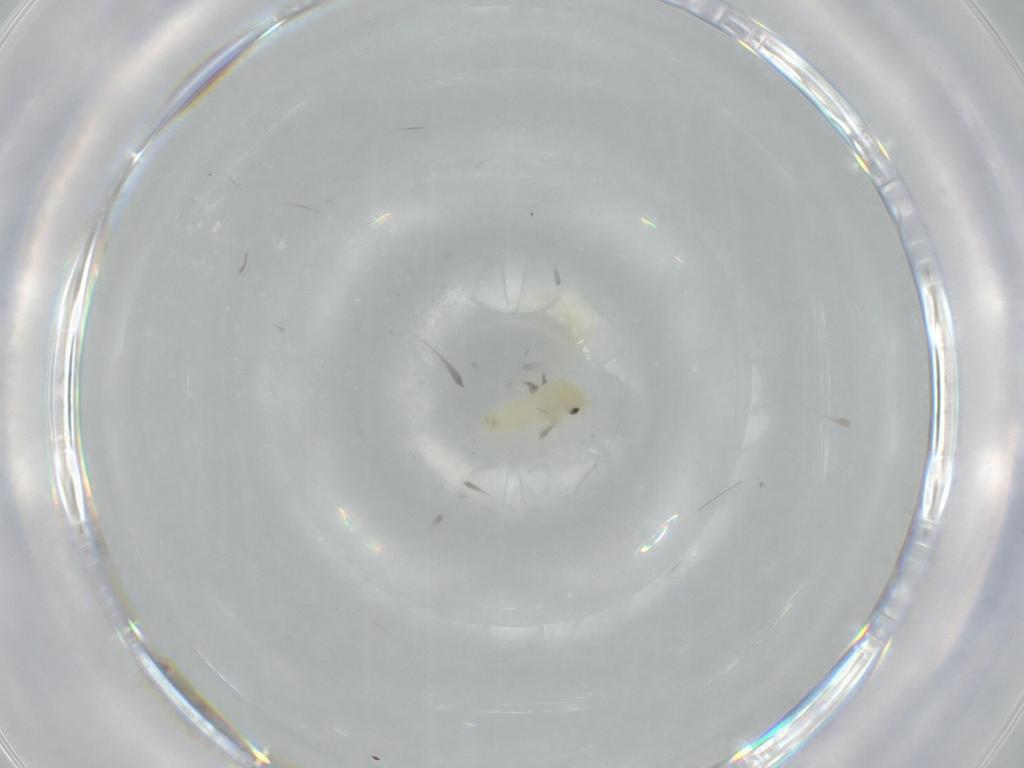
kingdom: Animalia
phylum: Arthropoda
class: Insecta
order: Hemiptera
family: Aleyrodidae
